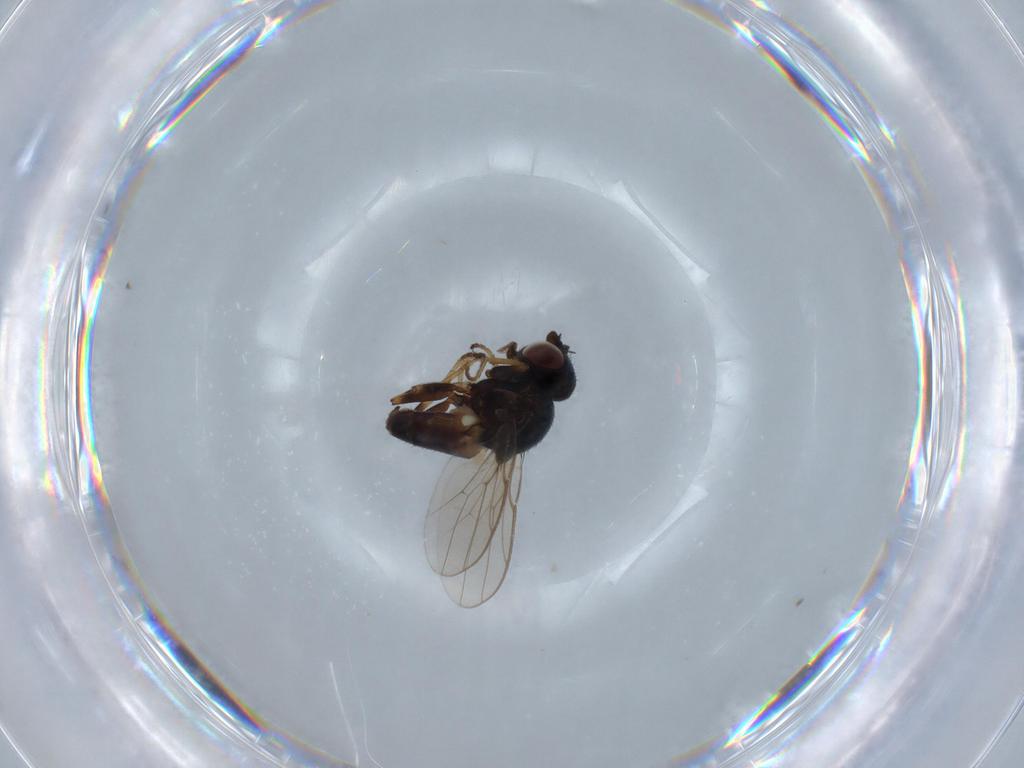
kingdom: Animalia
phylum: Arthropoda
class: Insecta
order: Diptera
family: Chloropidae
